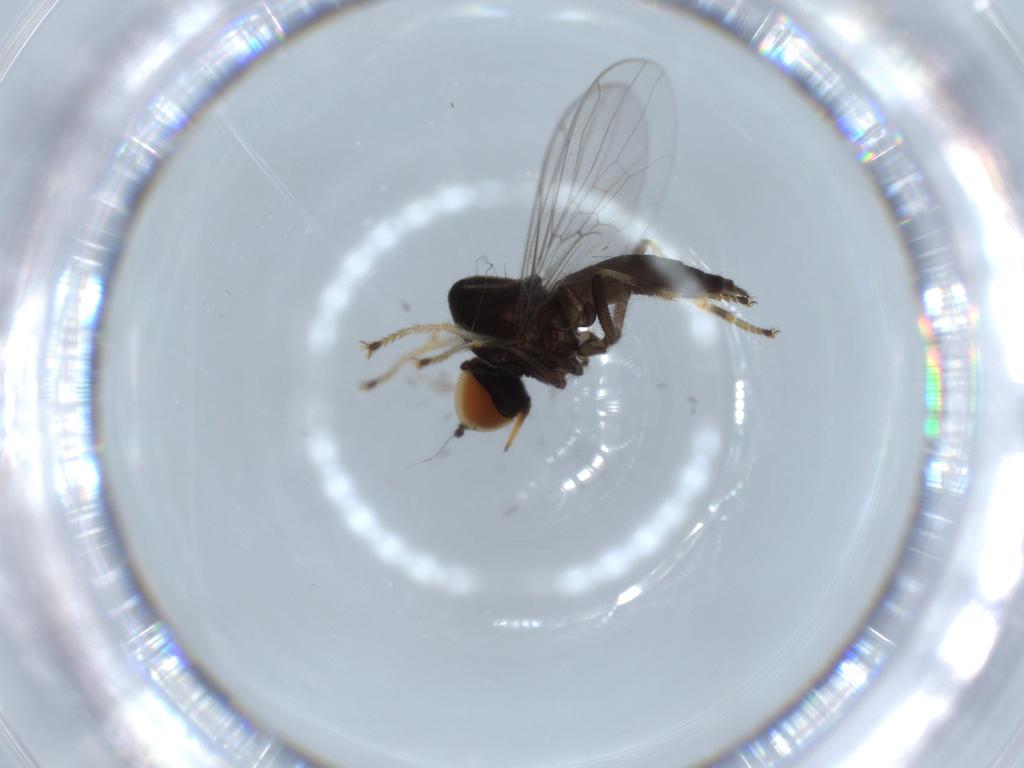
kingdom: Animalia
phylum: Arthropoda
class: Insecta
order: Diptera
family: Hybotidae
